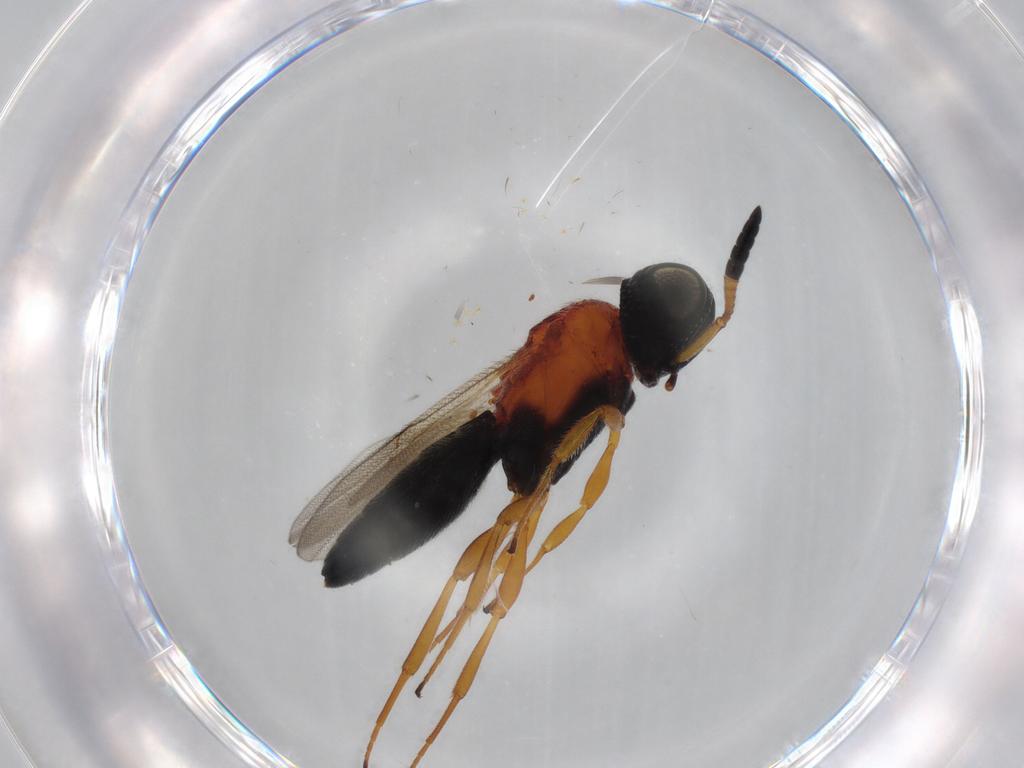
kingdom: Animalia
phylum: Arthropoda
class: Insecta
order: Hymenoptera
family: Scelionidae
